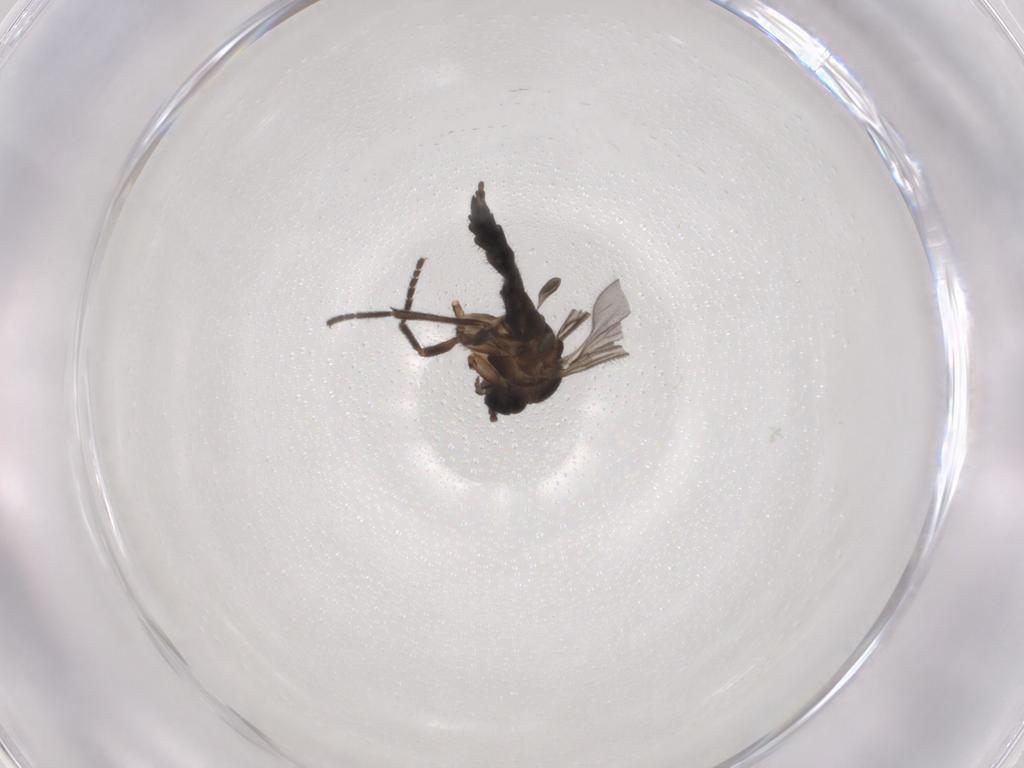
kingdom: Animalia
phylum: Arthropoda
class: Insecta
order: Diptera
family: Sciaridae
